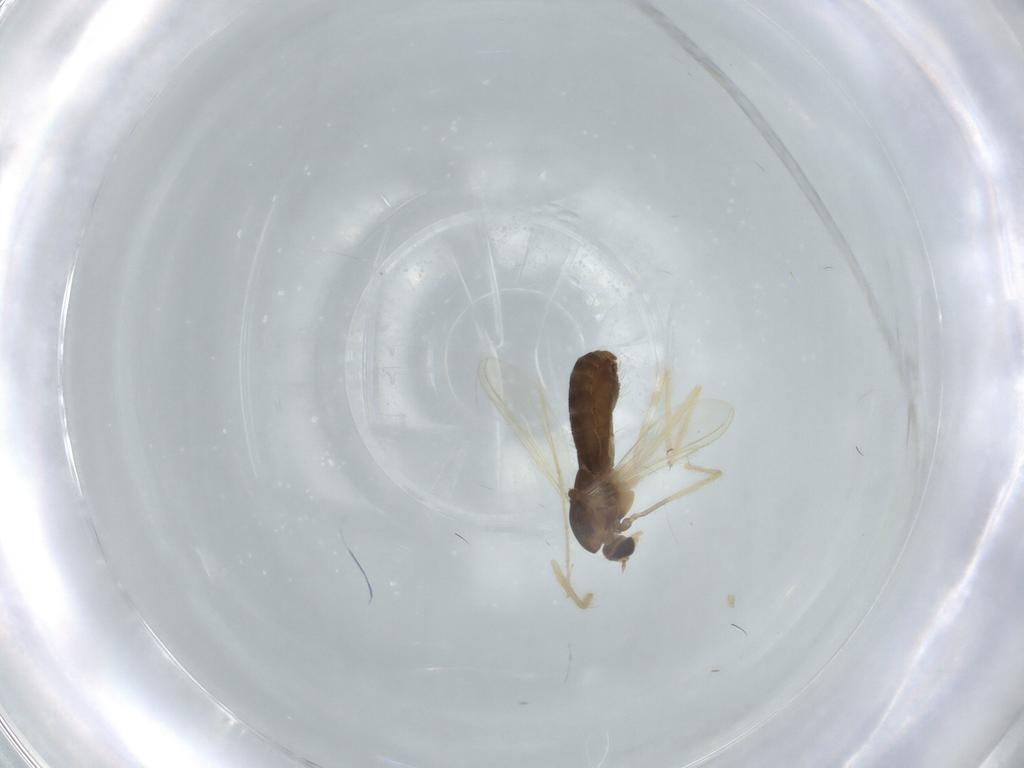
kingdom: Animalia
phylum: Arthropoda
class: Insecta
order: Diptera
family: Chironomidae
